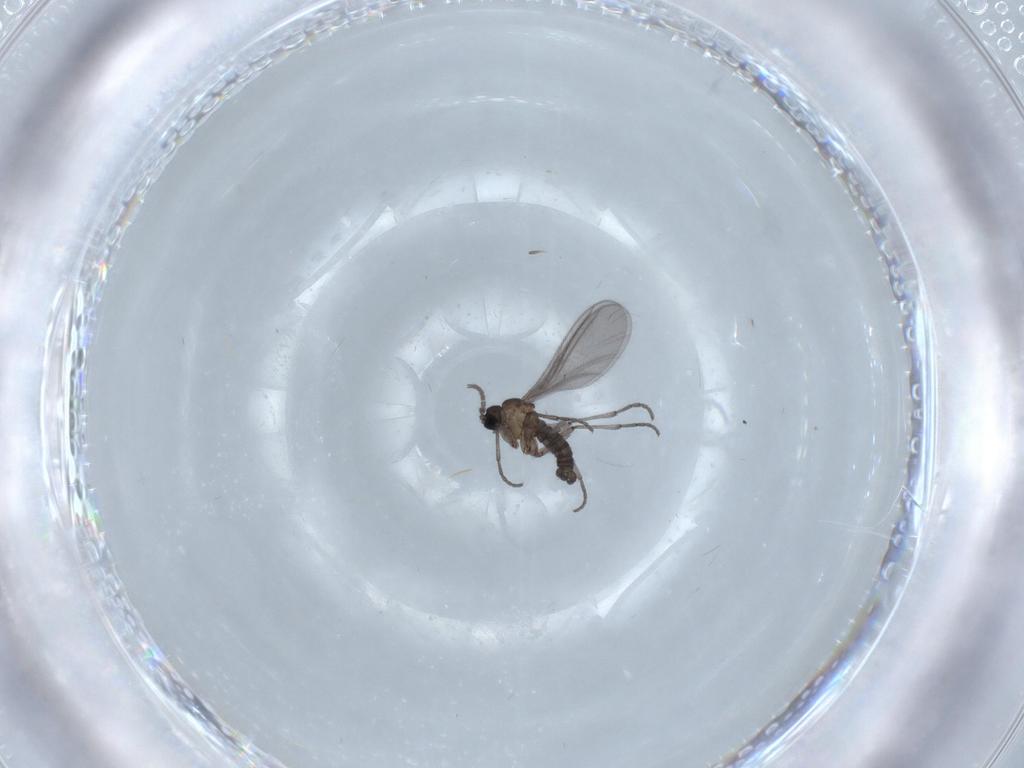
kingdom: Animalia
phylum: Arthropoda
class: Insecta
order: Diptera
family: Sciaridae
